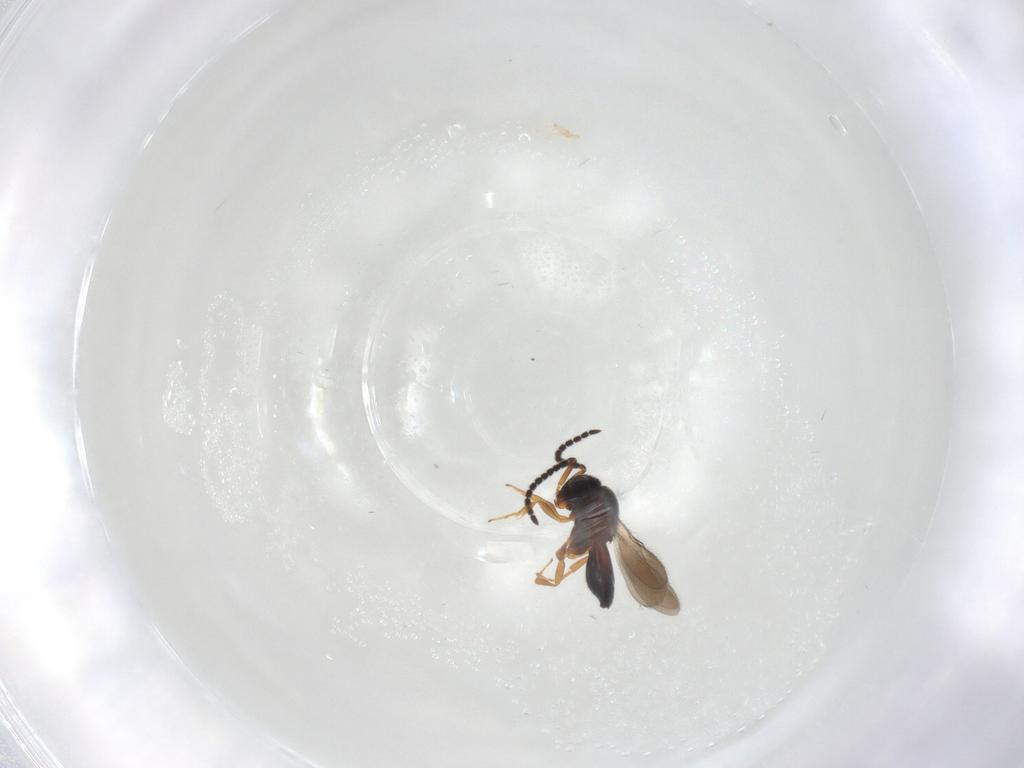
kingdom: Animalia
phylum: Arthropoda
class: Insecta
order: Hymenoptera
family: Scelionidae
